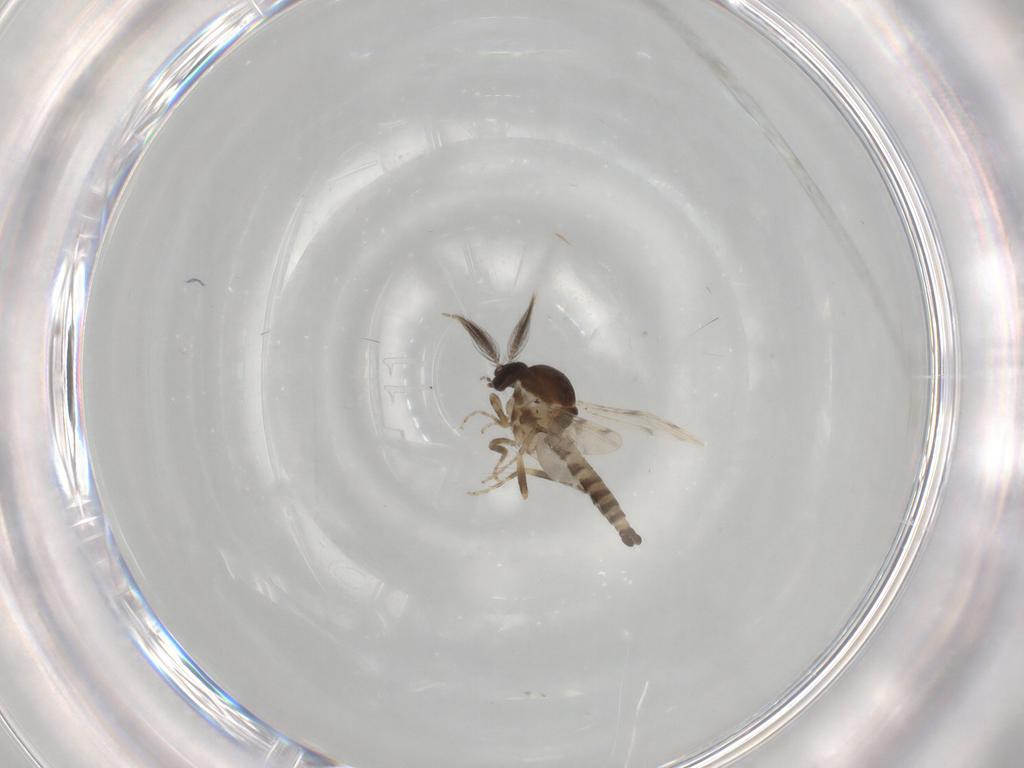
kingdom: Animalia
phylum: Arthropoda
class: Insecta
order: Diptera
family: Ceratopogonidae
